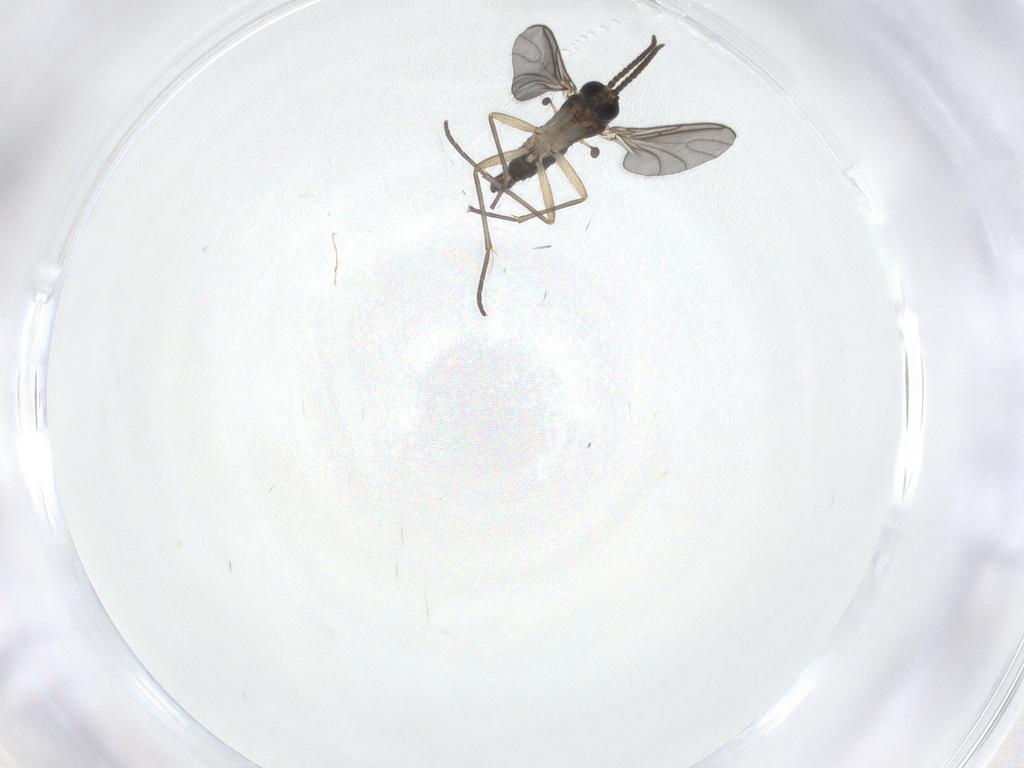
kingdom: Animalia
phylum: Arthropoda
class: Insecta
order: Diptera
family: Sciaridae
